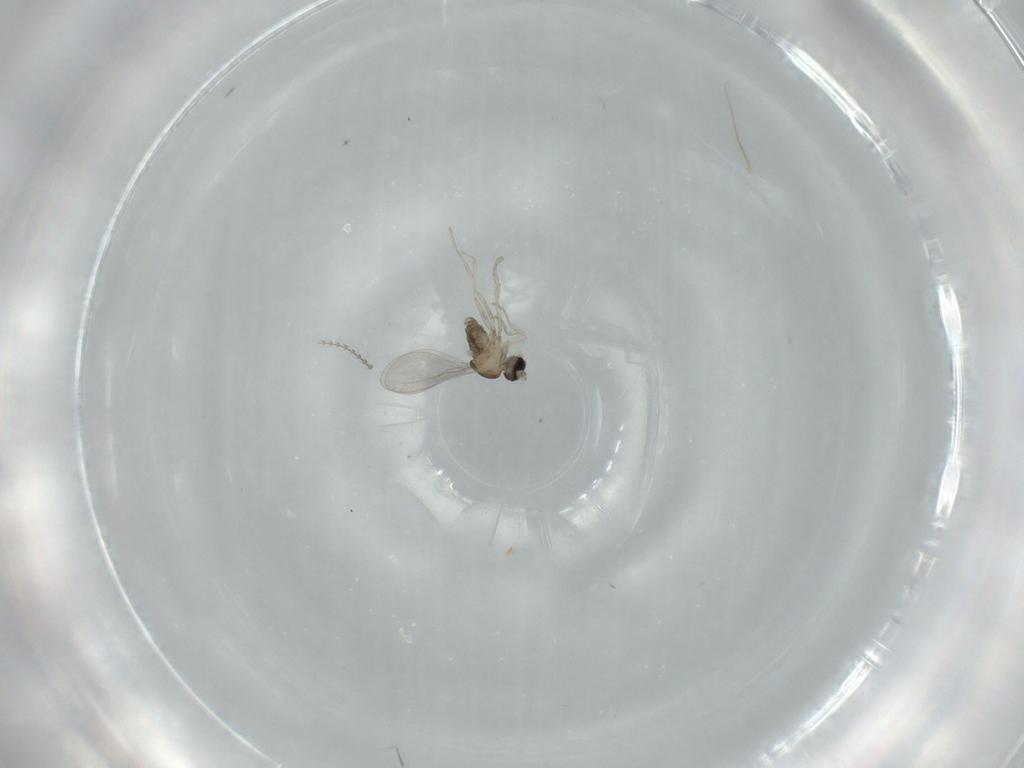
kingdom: Animalia
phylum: Arthropoda
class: Insecta
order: Diptera
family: Cecidomyiidae
